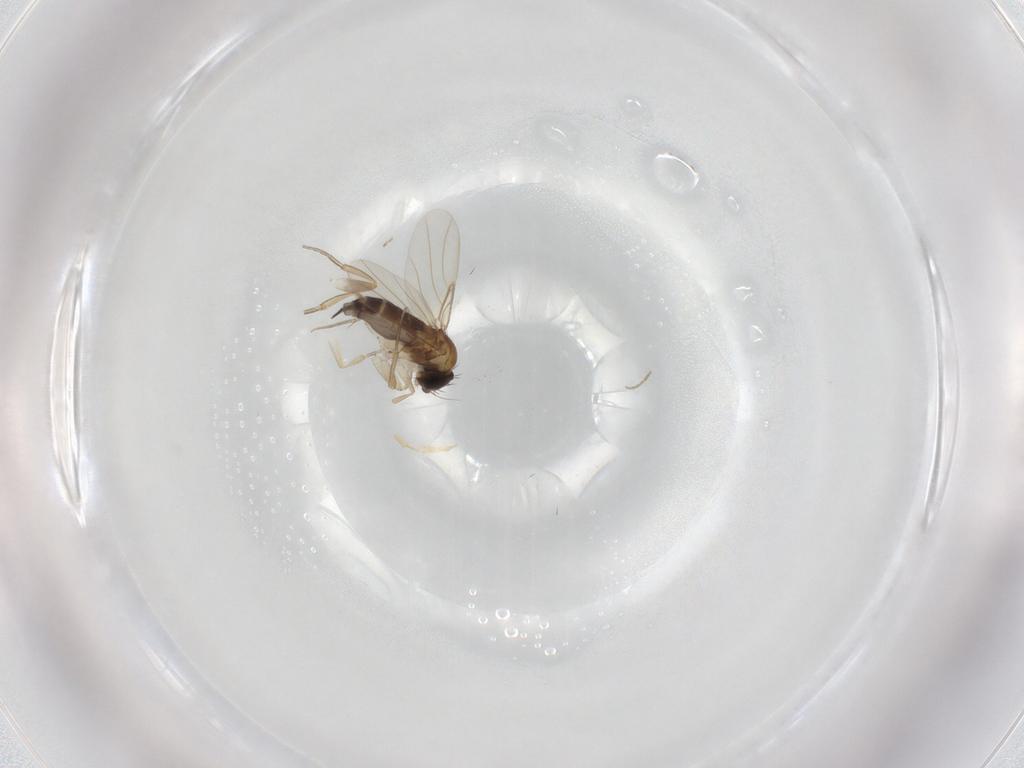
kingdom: Animalia
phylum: Arthropoda
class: Insecta
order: Diptera
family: Phoridae
